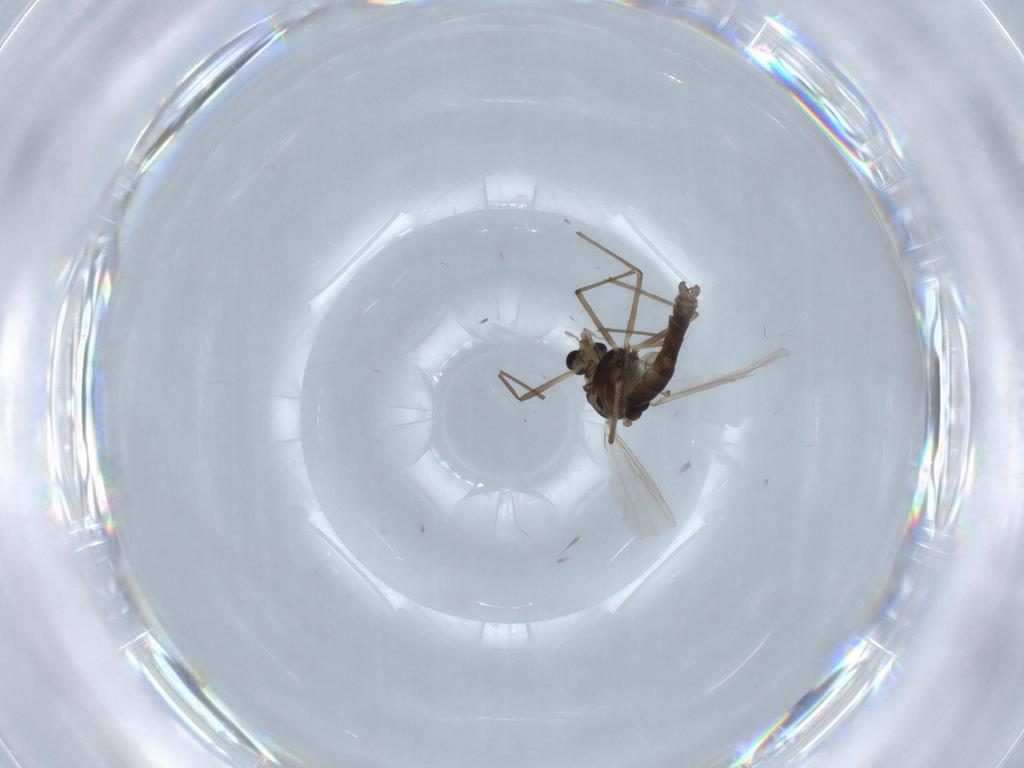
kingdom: Animalia
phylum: Arthropoda
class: Insecta
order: Diptera
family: Chironomidae
